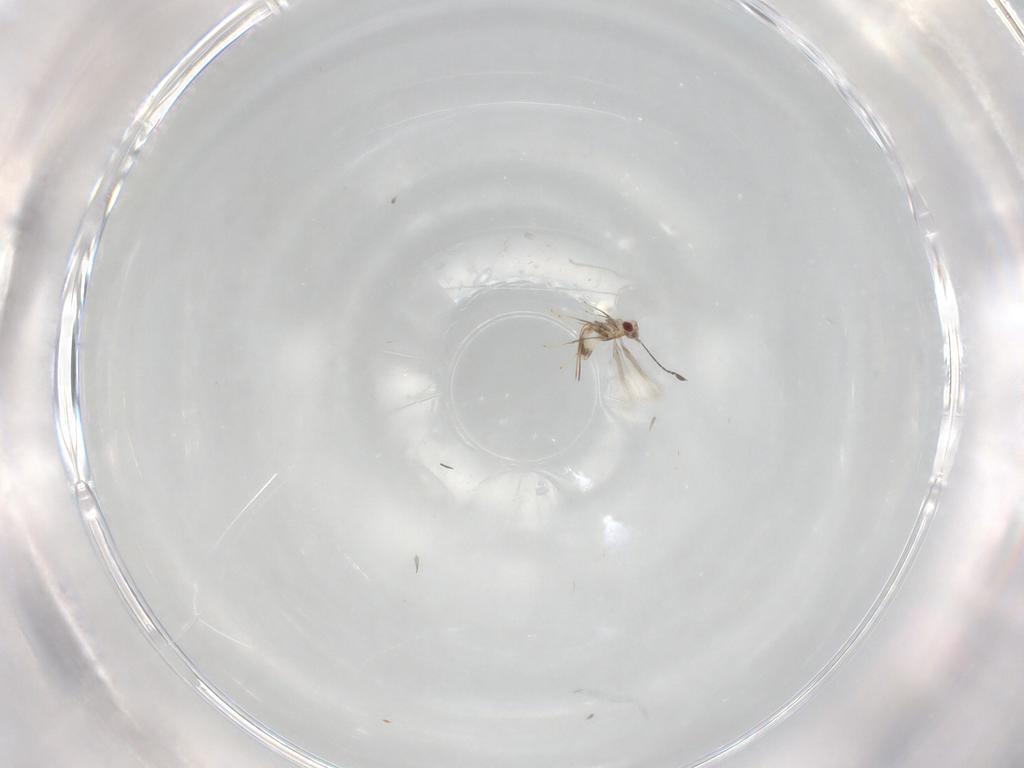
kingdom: Animalia
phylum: Arthropoda
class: Insecta
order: Hymenoptera
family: Mymaridae
